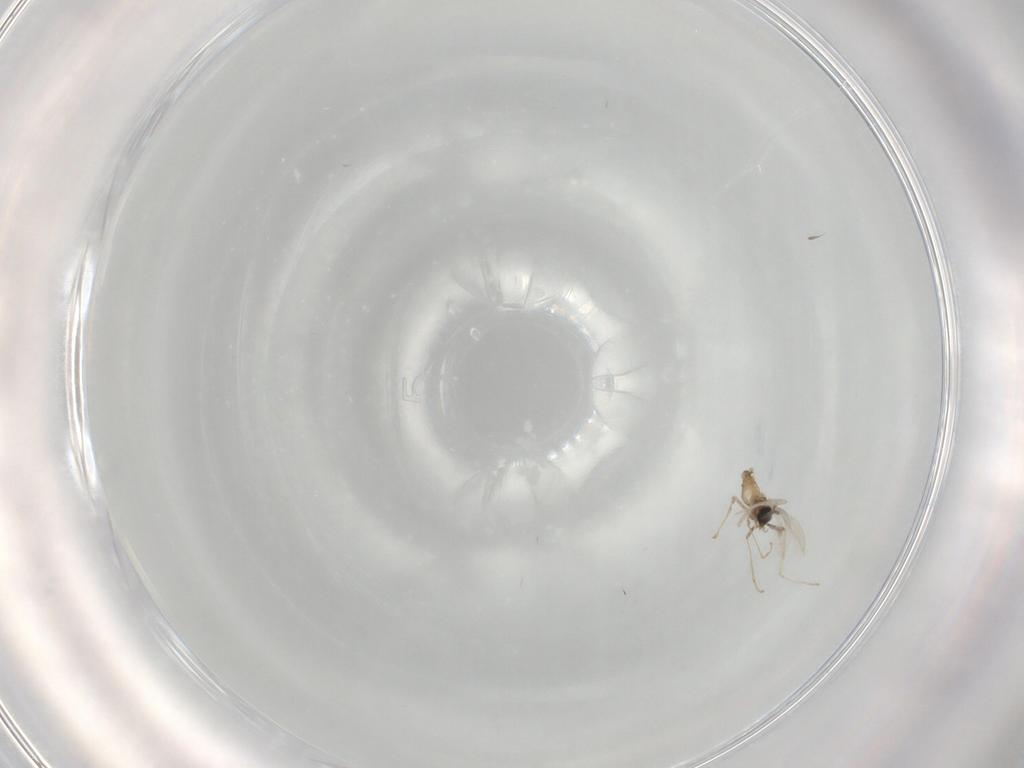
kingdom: Animalia
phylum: Arthropoda
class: Insecta
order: Diptera
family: Cecidomyiidae
